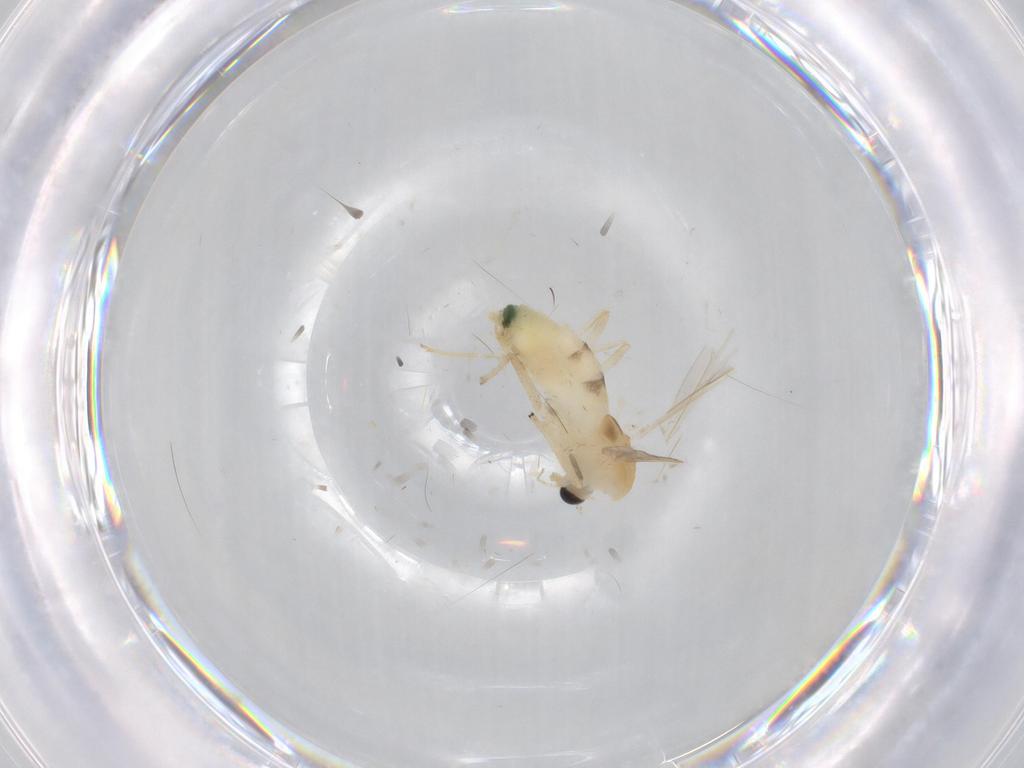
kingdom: Animalia
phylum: Arthropoda
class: Insecta
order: Diptera
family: Chironomidae
